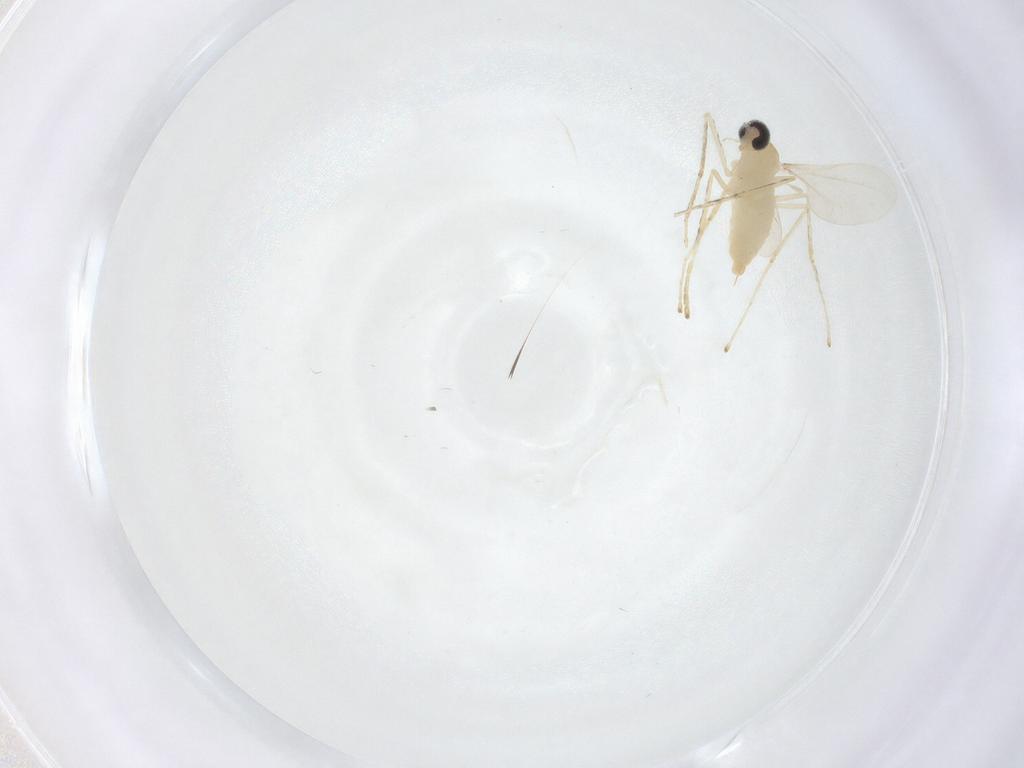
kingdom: Animalia
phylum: Arthropoda
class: Insecta
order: Diptera
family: Cecidomyiidae
